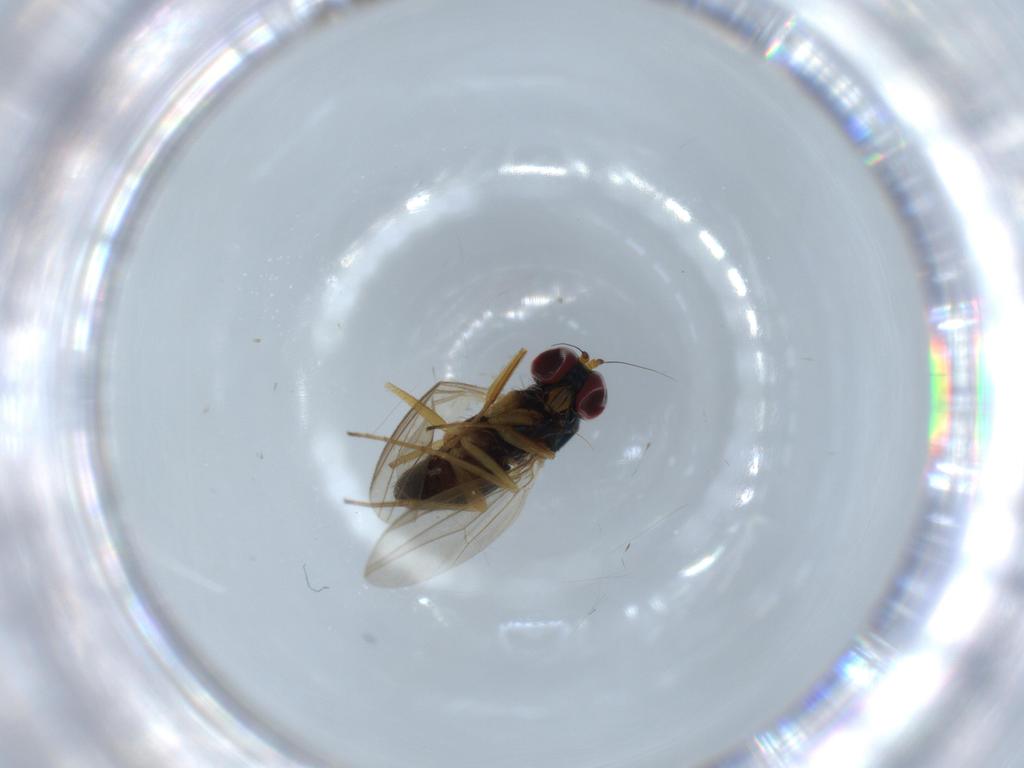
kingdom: Animalia
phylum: Arthropoda
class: Insecta
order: Diptera
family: Dolichopodidae
